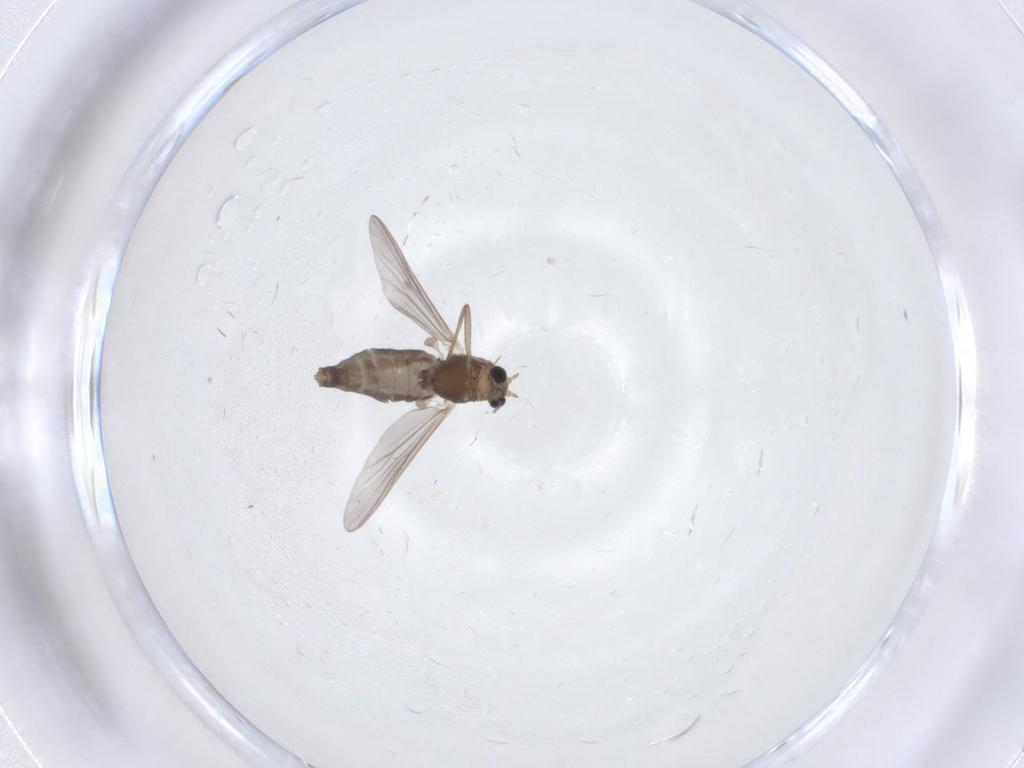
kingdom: Animalia
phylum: Arthropoda
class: Insecta
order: Diptera
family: Chironomidae
